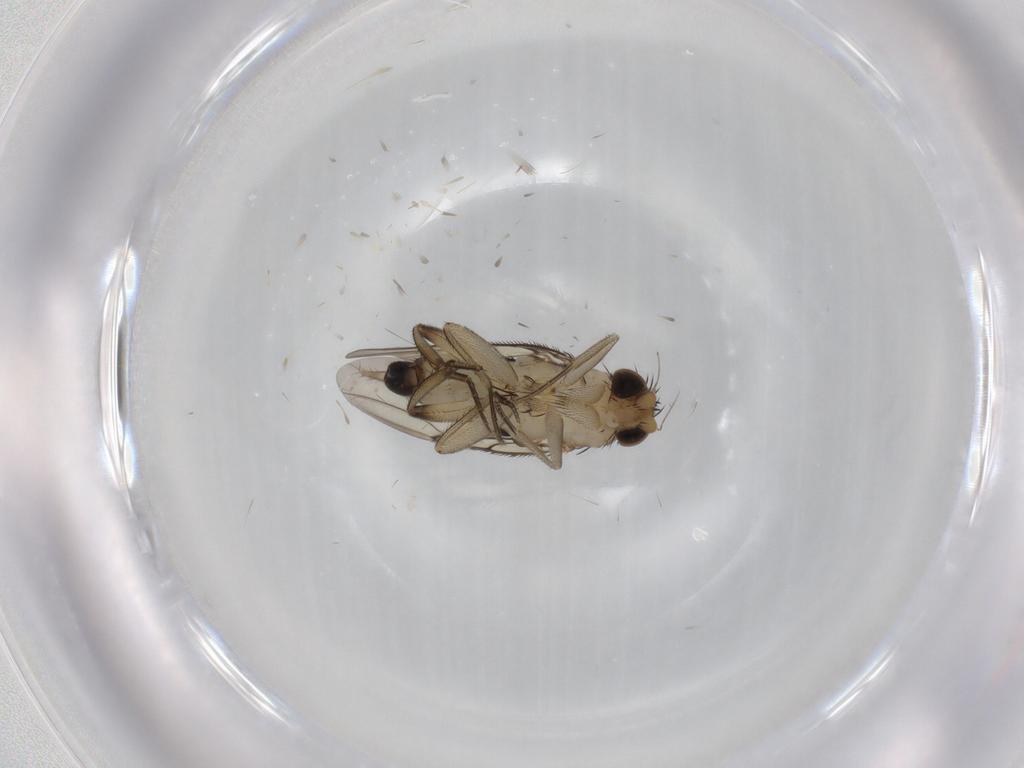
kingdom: Animalia
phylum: Arthropoda
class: Insecta
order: Diptera
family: Phoridae
